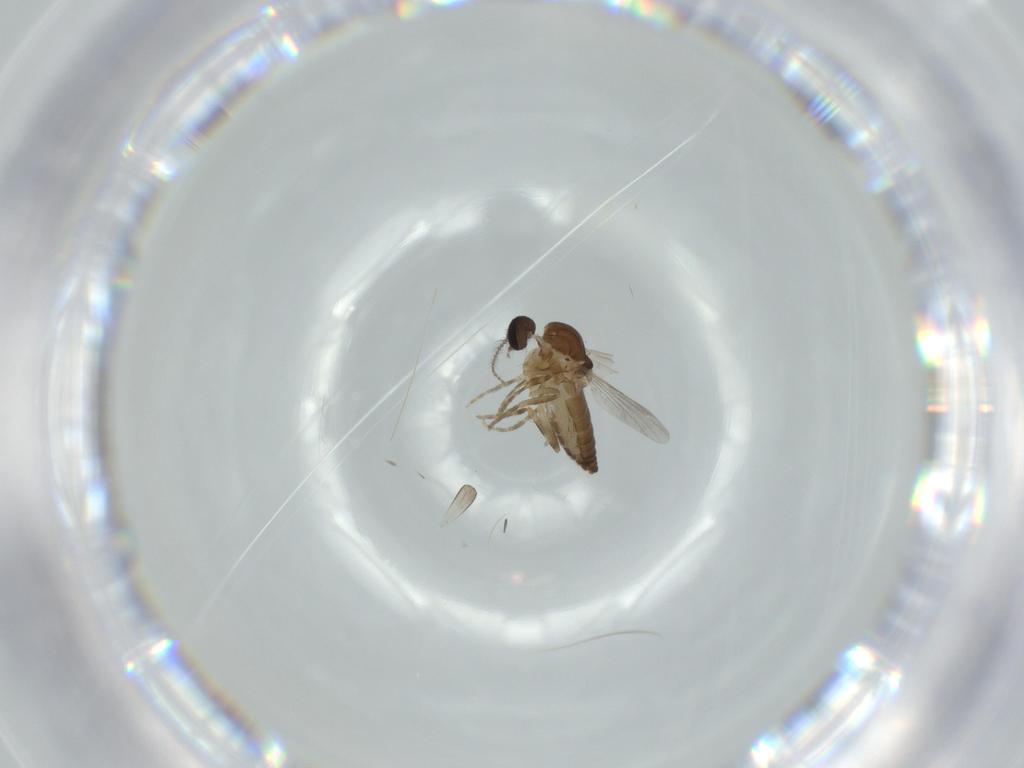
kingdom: Animalia
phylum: Arthropoda
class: Insecta
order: Diptera
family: Ceratopogonidae
